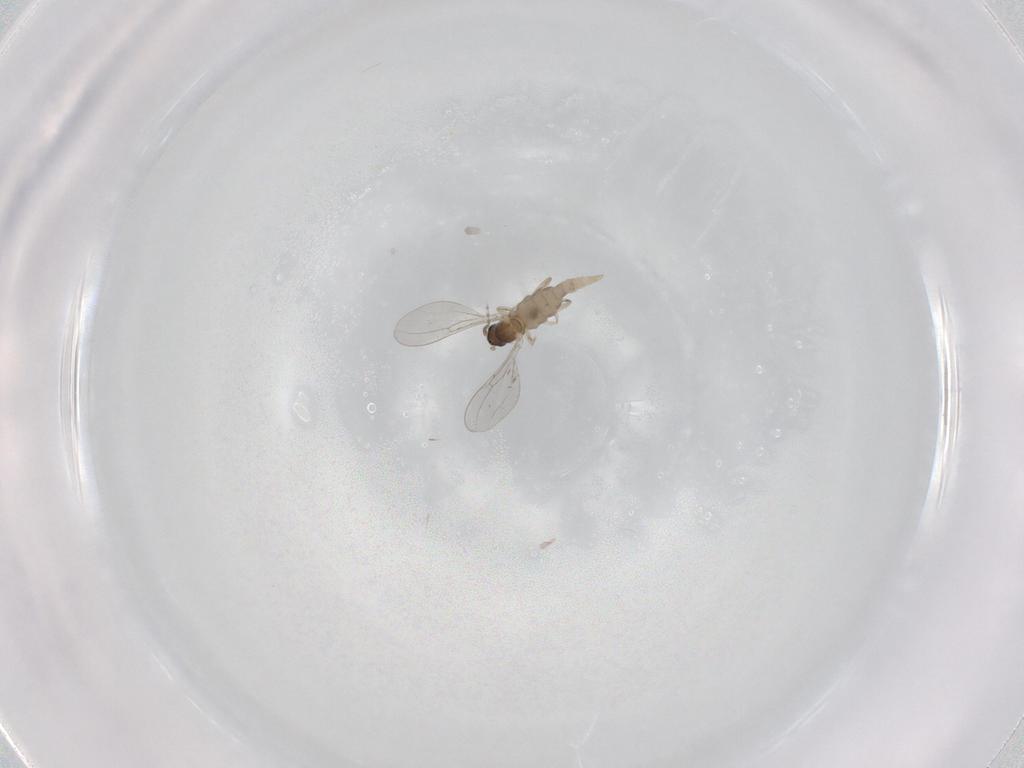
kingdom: Animalia
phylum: Arthropoda
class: Insecta
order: Diptera
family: Cecidomyiidae
